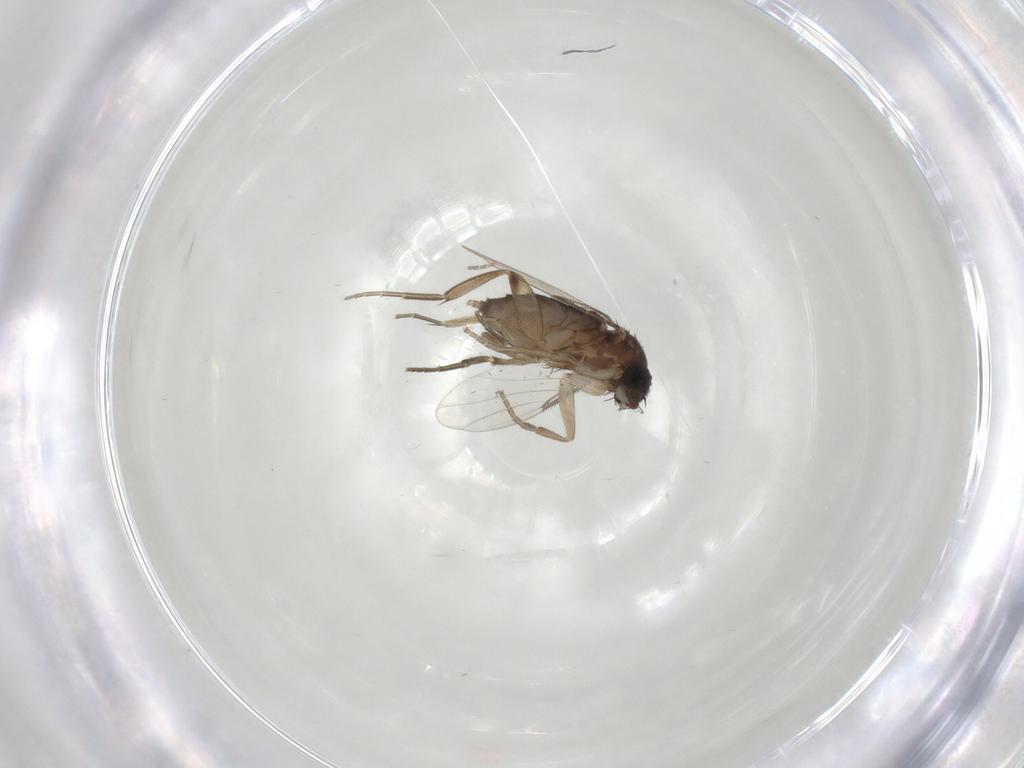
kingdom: Animalia
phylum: Arthropoda
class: Insecta
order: Diptera
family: Phoridae
